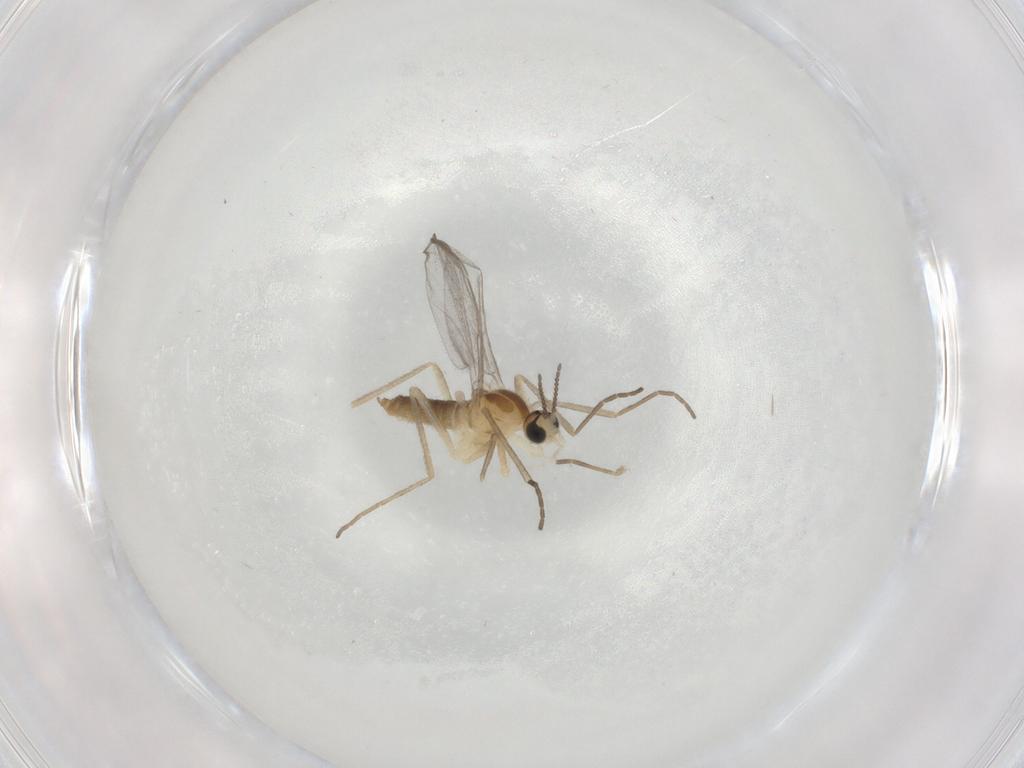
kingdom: Animalia
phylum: Arthropoda
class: Insecta
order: Diptera
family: Cecidomyiidae
